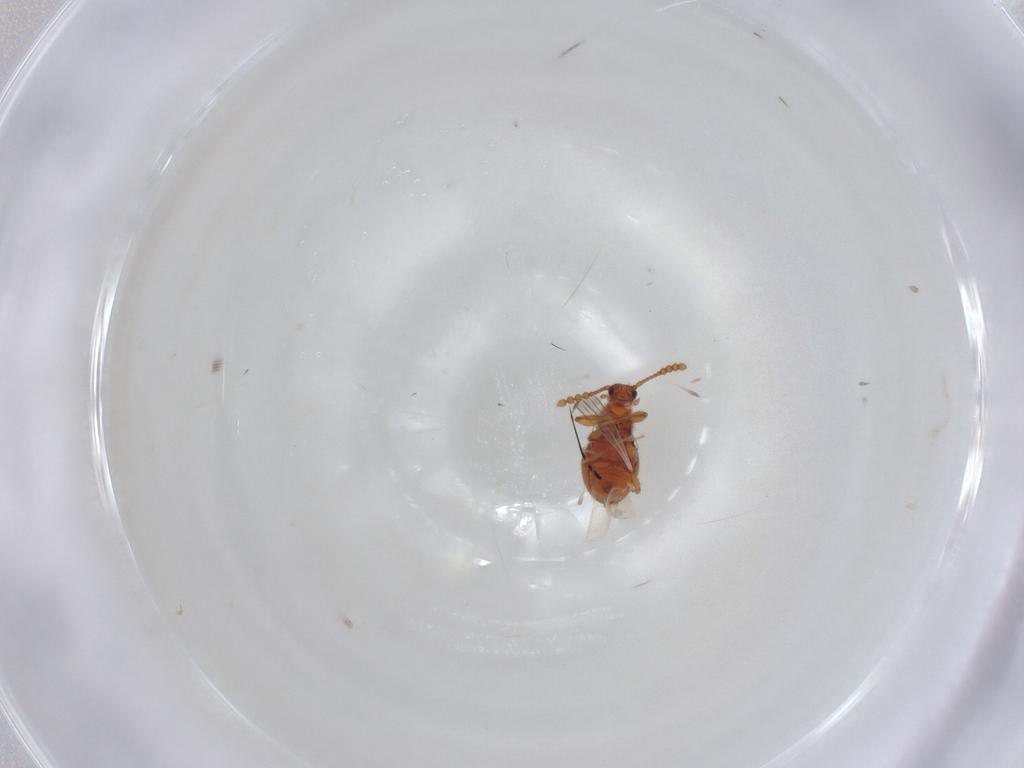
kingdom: Animalia
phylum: Arthropoda
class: Insecta
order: Coleoptera
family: Staphylinidae
